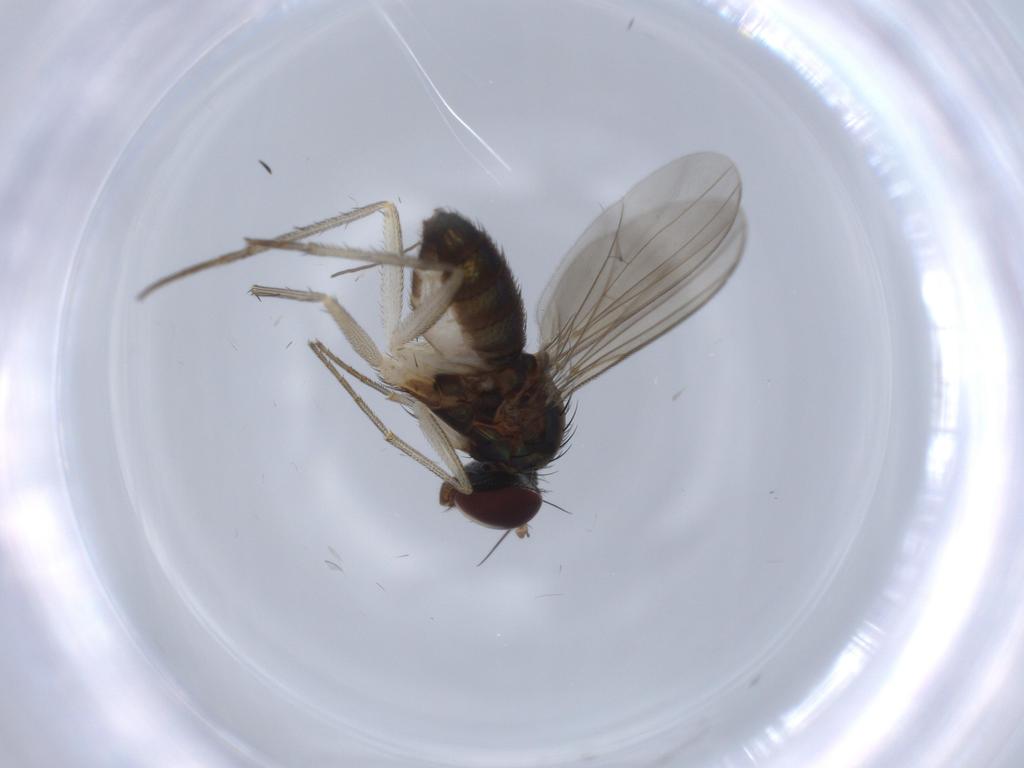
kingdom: Animalia
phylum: Arthropoda
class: Insecta
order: Diptera
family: Dolichopodidae
